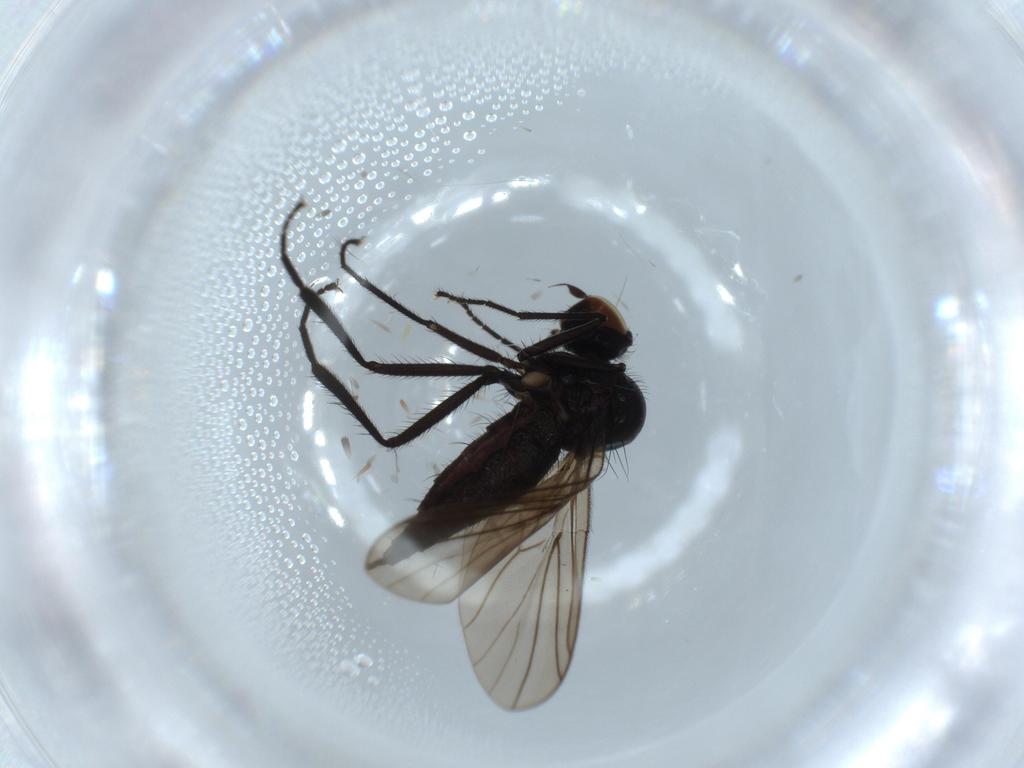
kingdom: Animalia
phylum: Arthropoda
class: Insecta
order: Diptera
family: Hybotidae
